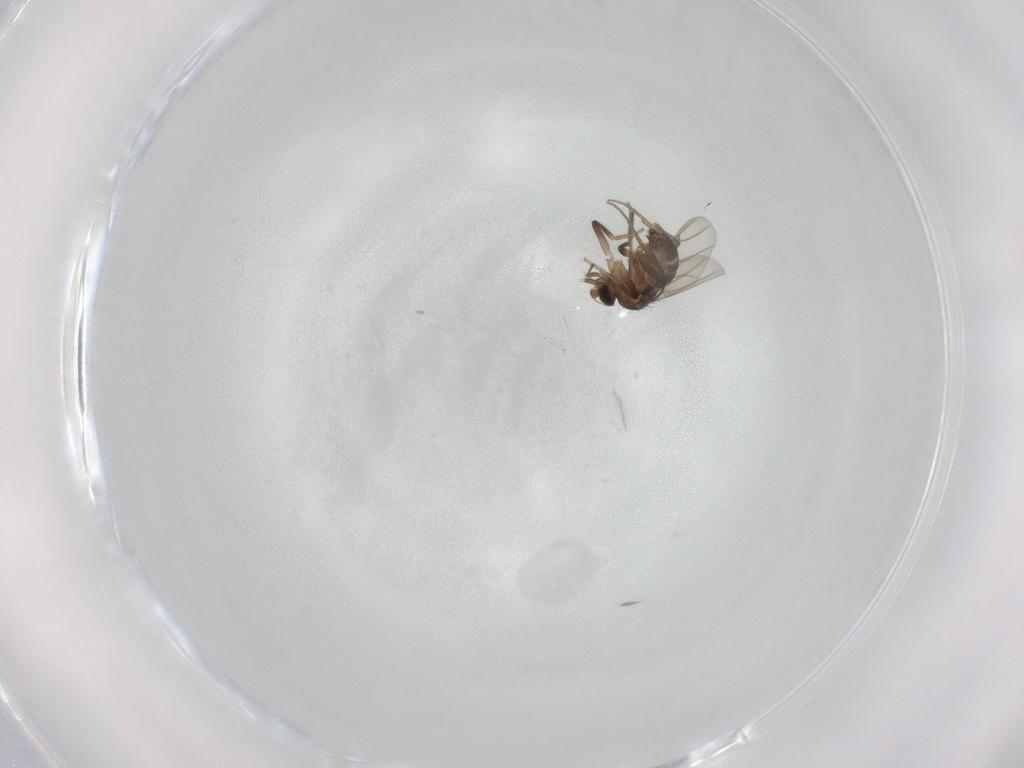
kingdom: Animalia
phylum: Arthropoda
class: Insecta
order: Diptera
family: Phoridae
